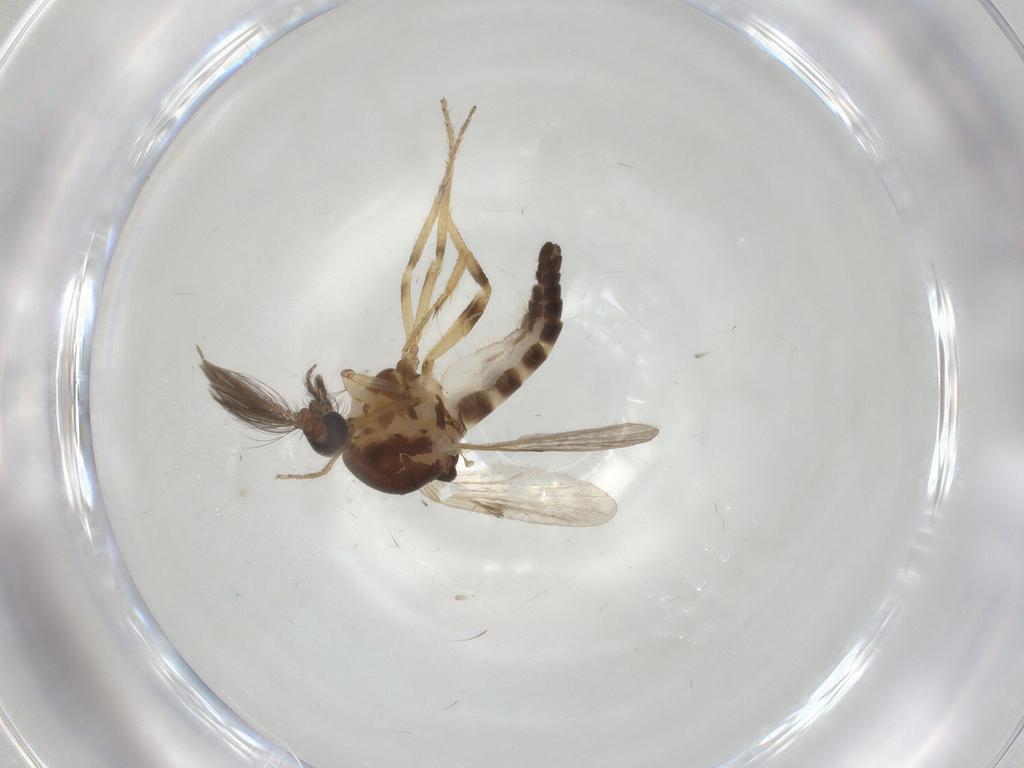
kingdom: Animalia
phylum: Arthropoda
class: Insecta
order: Diptera
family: Ceratopogonidae
